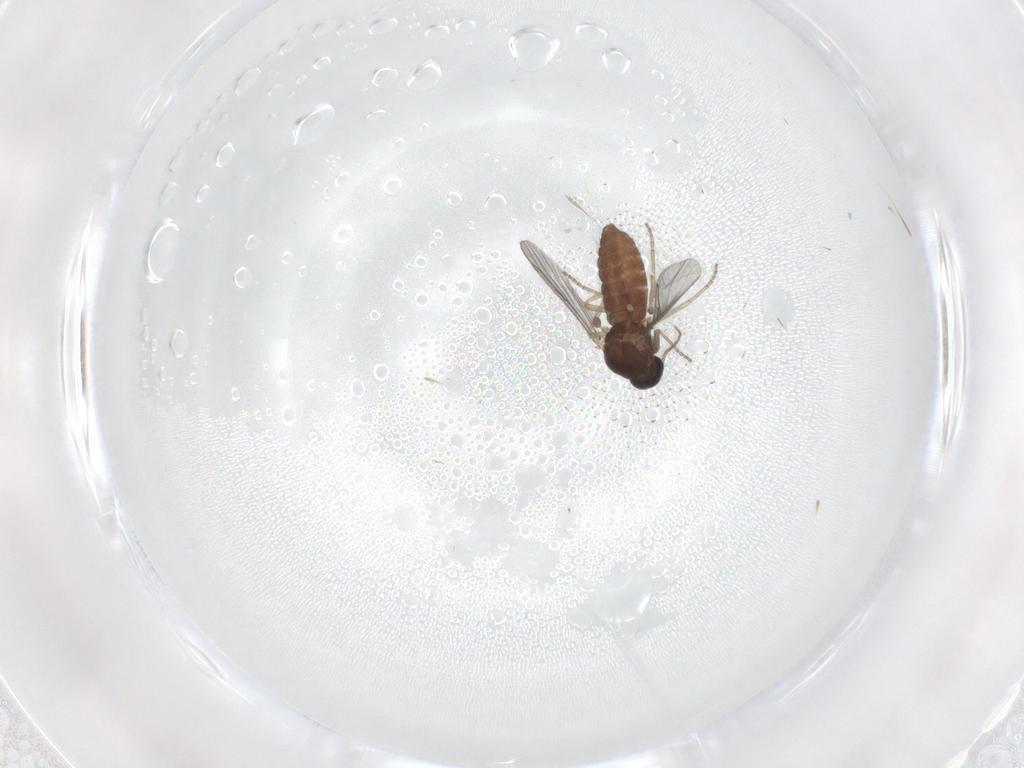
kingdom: Animalia
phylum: Arthropoda
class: Insecta
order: Diptera
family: Ceratopogonidae
